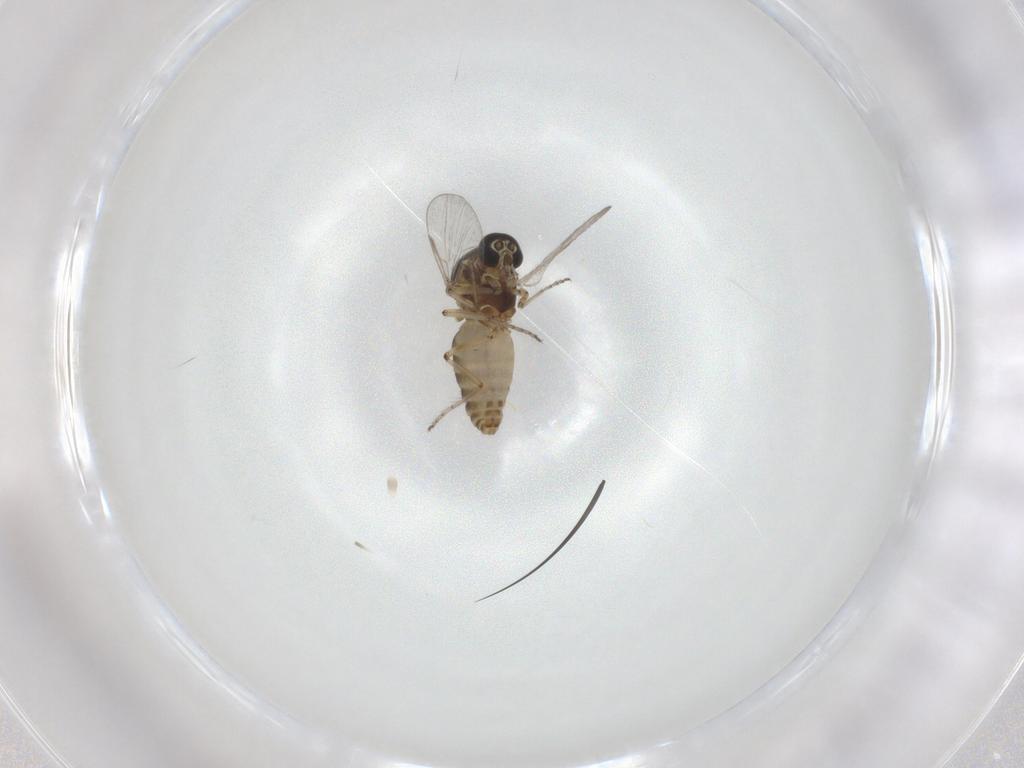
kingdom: Animalia
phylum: Arthropoda
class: Insecta
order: Diptera
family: Ceratopogonidae
